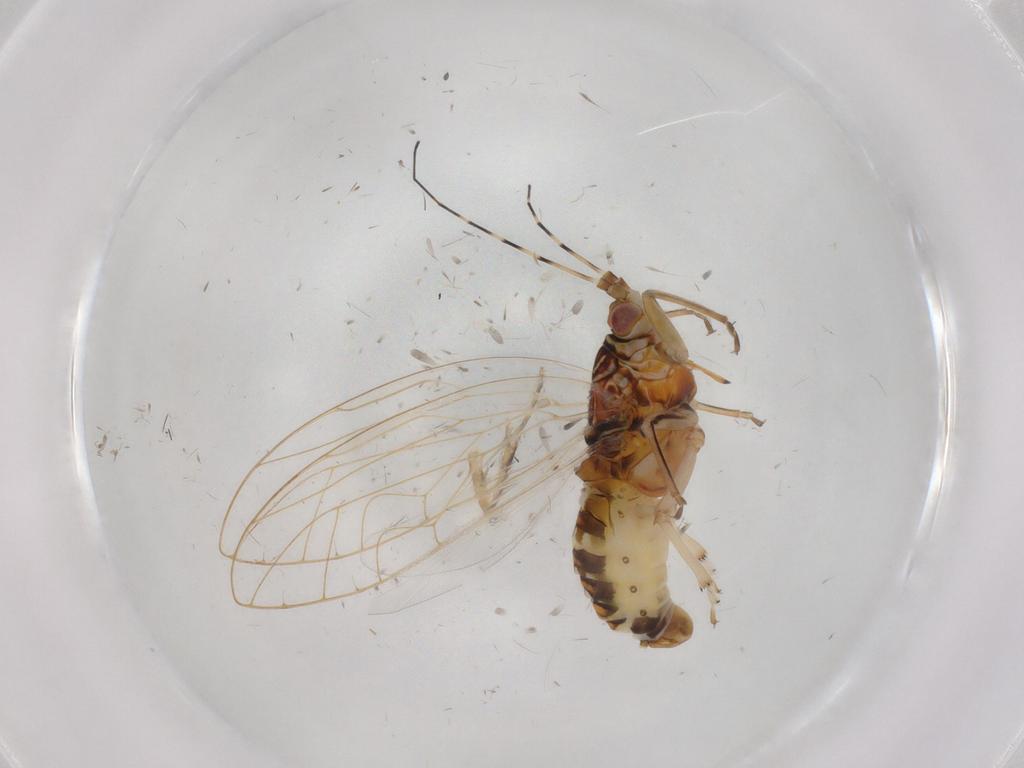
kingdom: Animalia
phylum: Arthropoda
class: Insecta
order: Hemiptera
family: Carsidaridae
